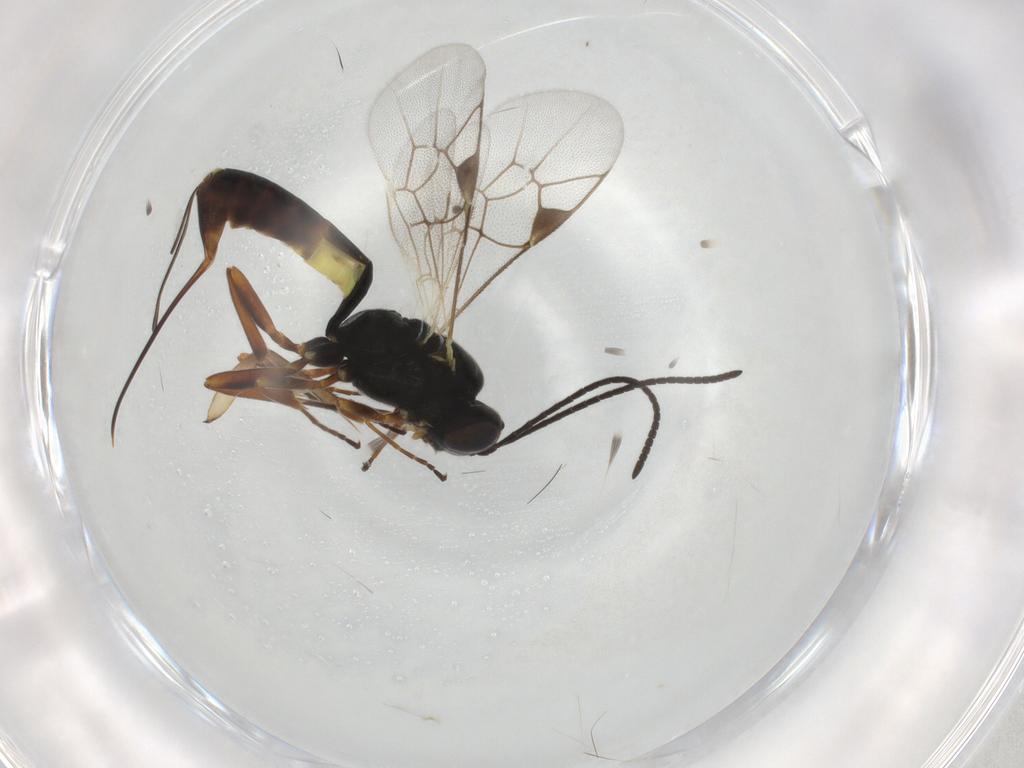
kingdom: Animalia
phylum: Arthropoda
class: Insecta
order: Hymenoptera
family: Ichneumonidae
